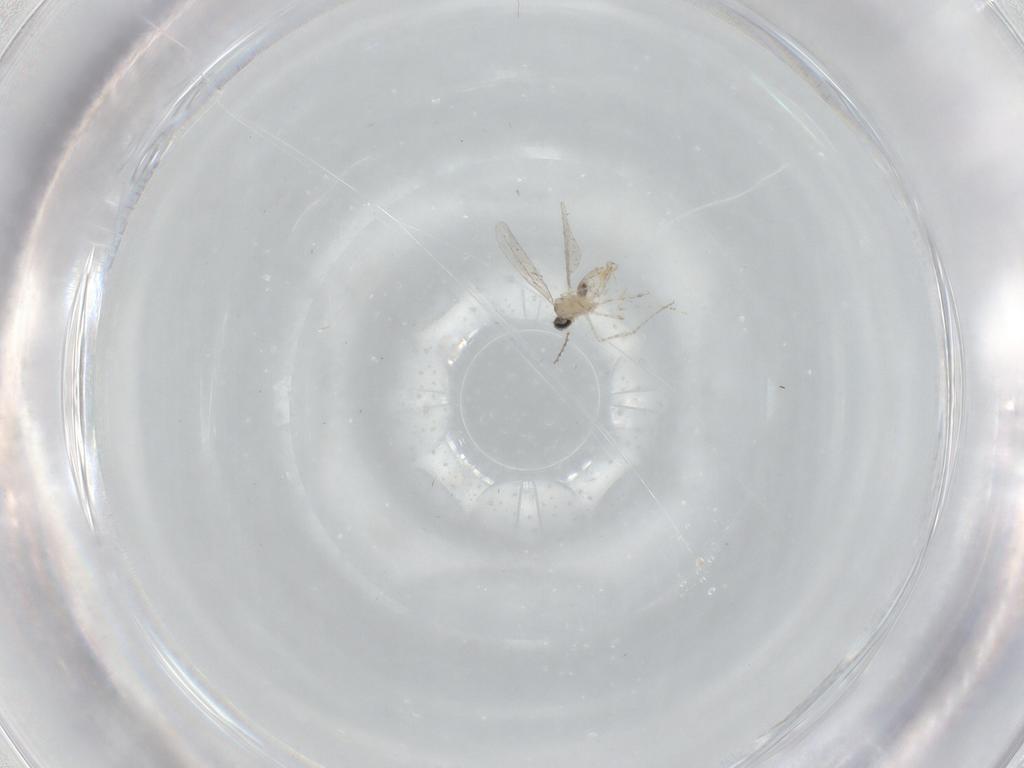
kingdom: Animalia
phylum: Arthropoda
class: Insecta
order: Diptera
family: Cecidomyiidae
